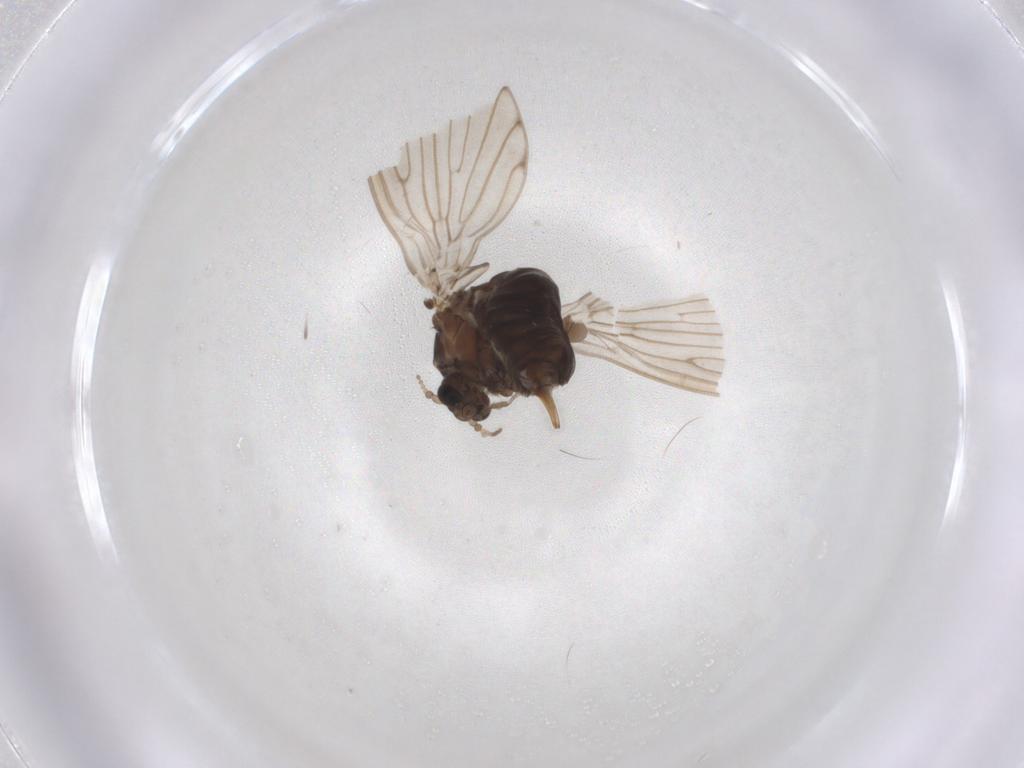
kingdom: Animalia
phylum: Arthropoda
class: Insecta
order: Diptera
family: Psychodidae
